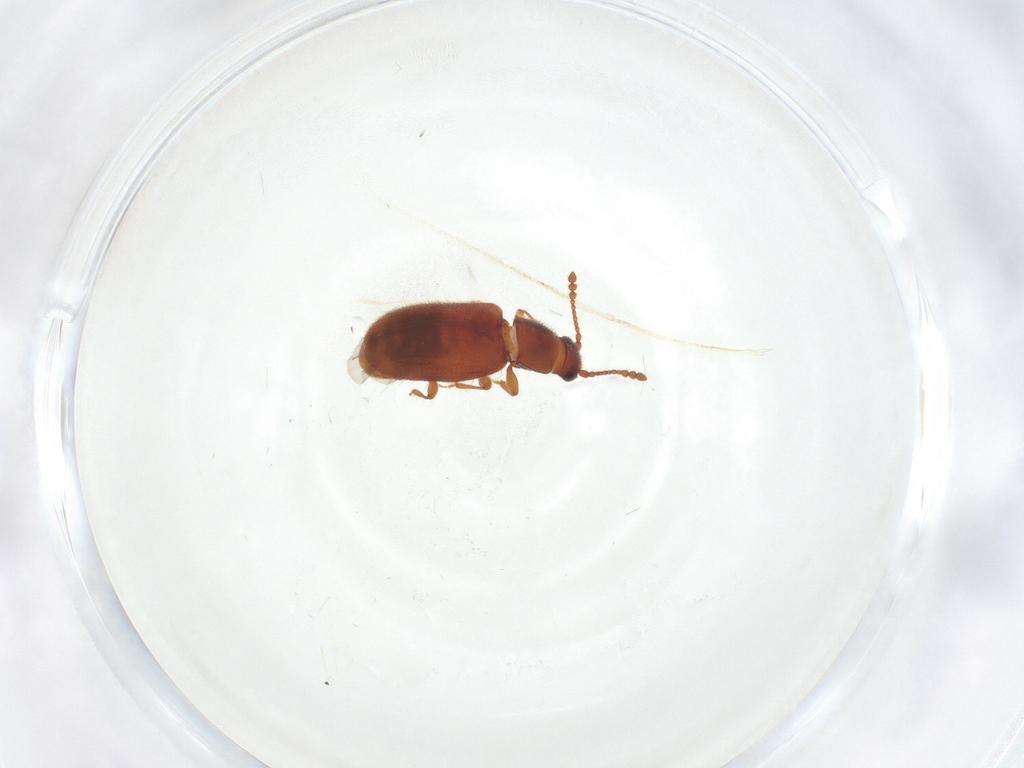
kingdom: Animalia
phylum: Arthropoda
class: Insecta
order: Coleoptera
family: Cryptophagidae
